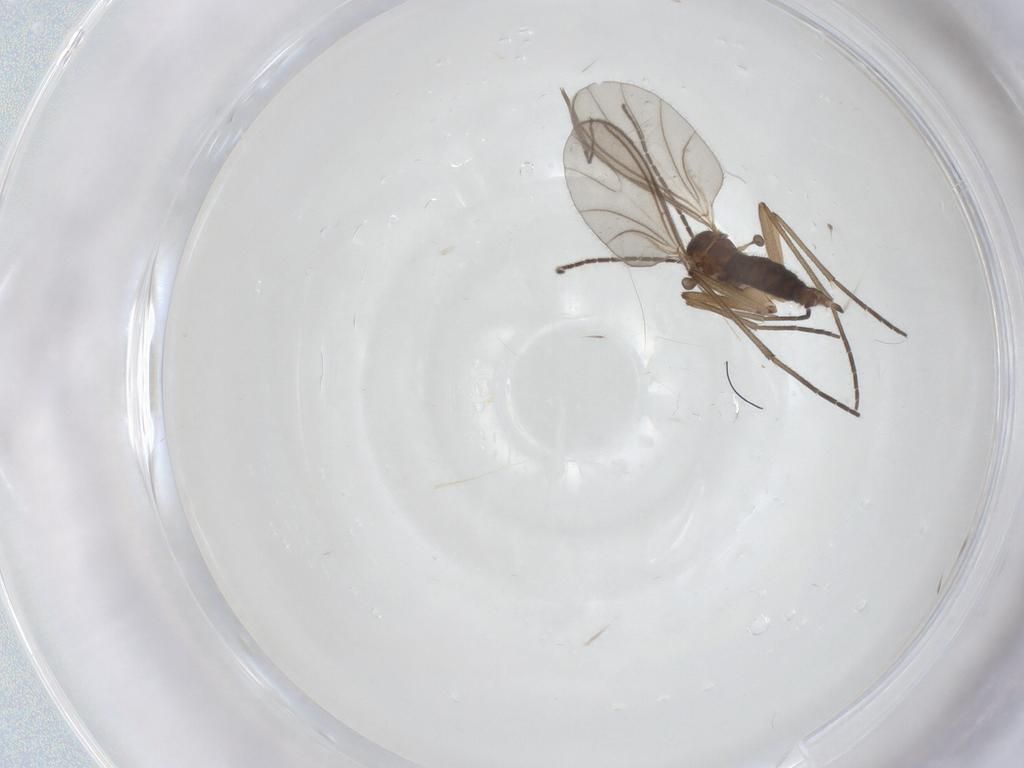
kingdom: Animalia
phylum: Arthropoda
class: Insecta
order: Diptera
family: Sciaridae
